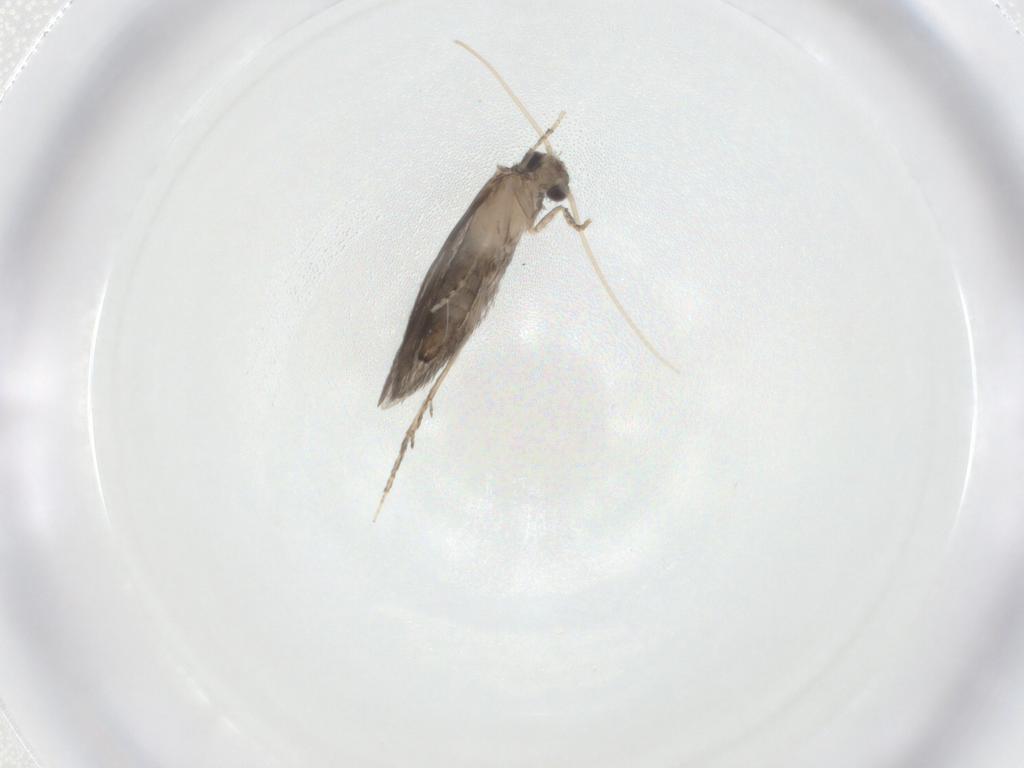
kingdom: Animalia
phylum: Arthropoda
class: Insecta
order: Trichoptera
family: Hydroptilidae
